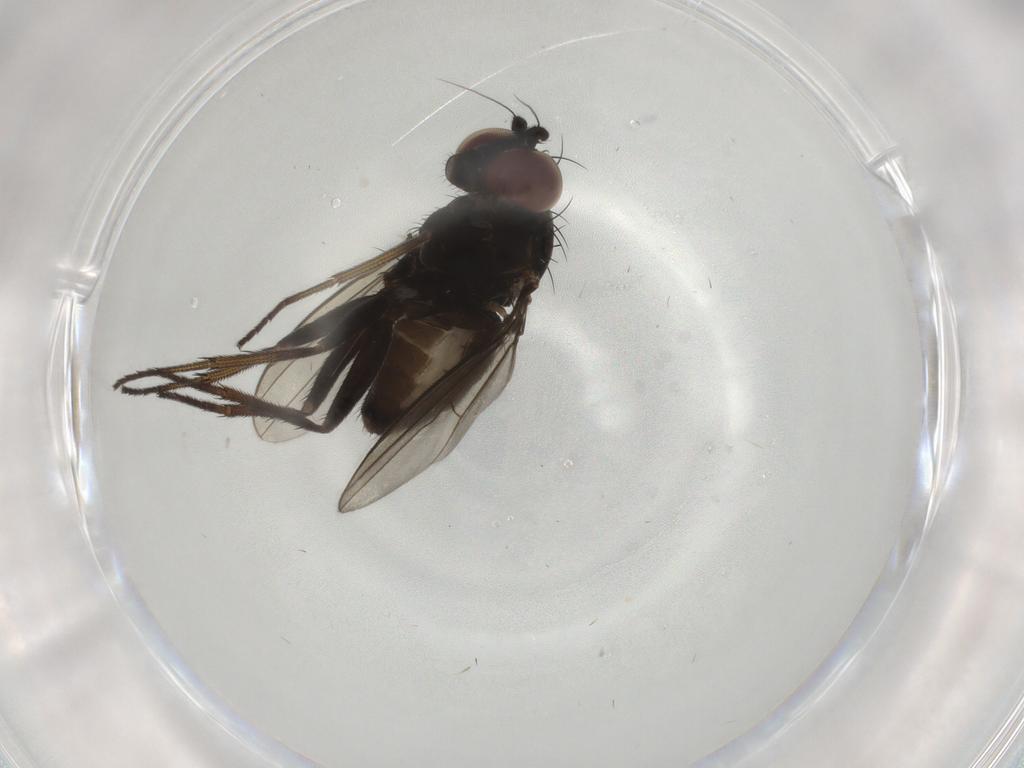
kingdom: Animalia
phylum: Arthropoda
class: Insecta
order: Diptera
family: Dolichopodidae
